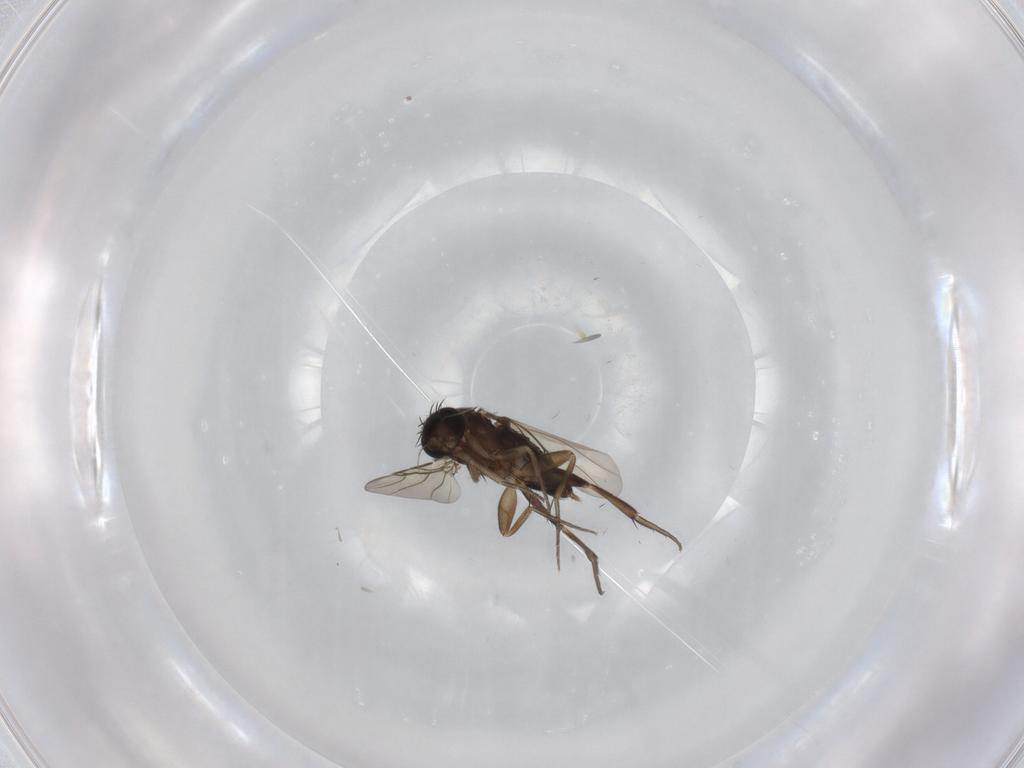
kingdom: Animalia
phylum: Arthropoda
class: Insecta
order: Diptera
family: Phoridae
